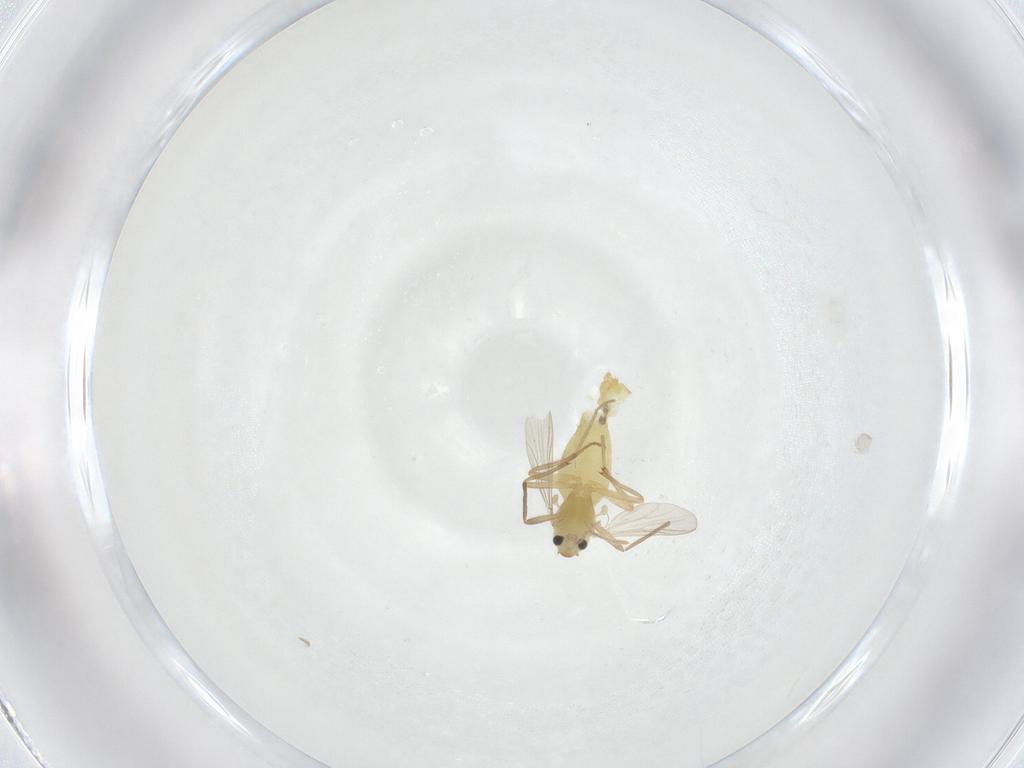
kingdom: Animalia
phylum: Arthropoda
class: Insecta
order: Diptera
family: Chironomidae
